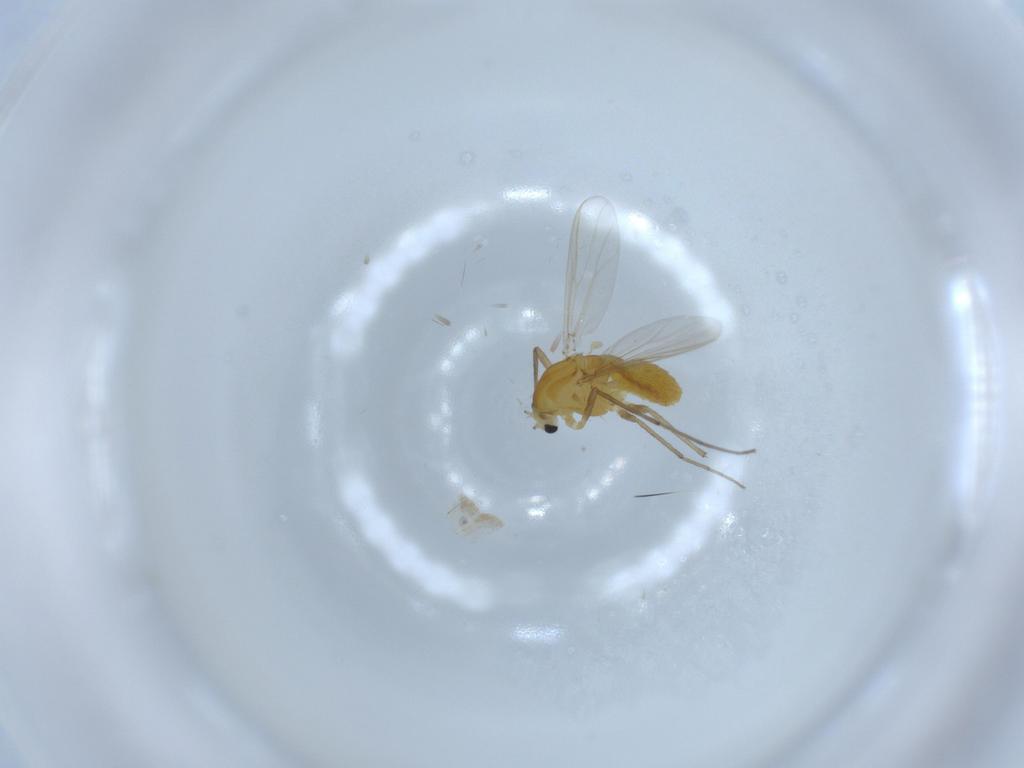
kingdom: Animalia
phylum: Arthropoda
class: Insecta
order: Diptera
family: Chironomidae
